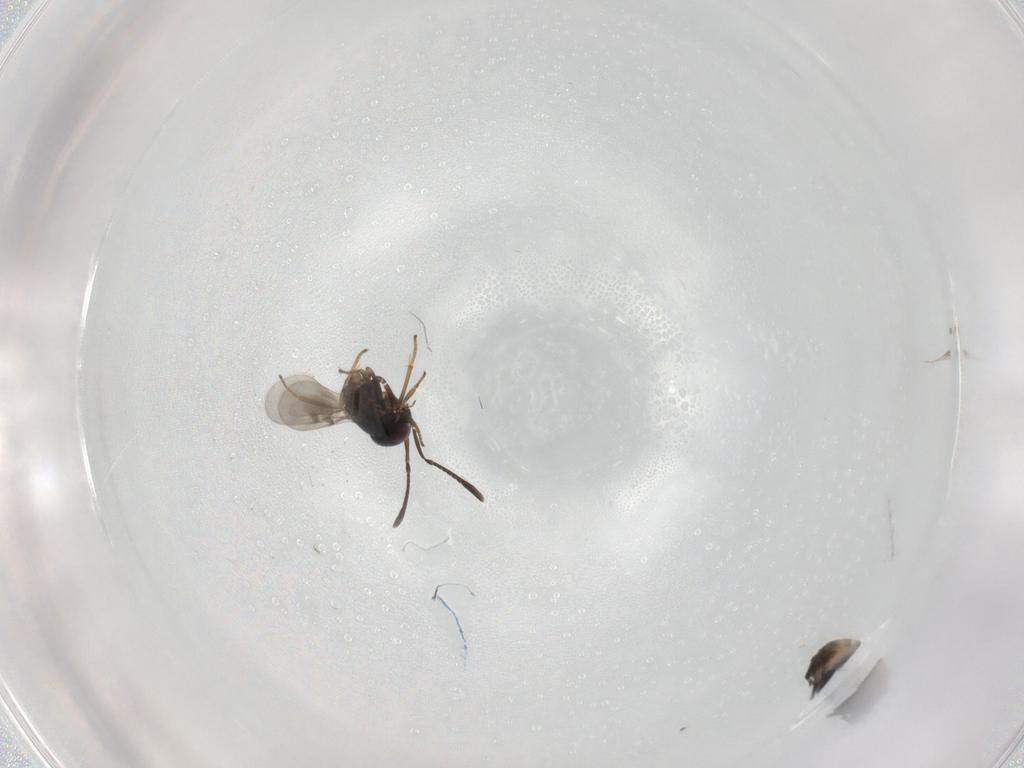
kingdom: Animalia
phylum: Arthropoda
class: Insecta
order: Hymenoptera
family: Encyrtidae
